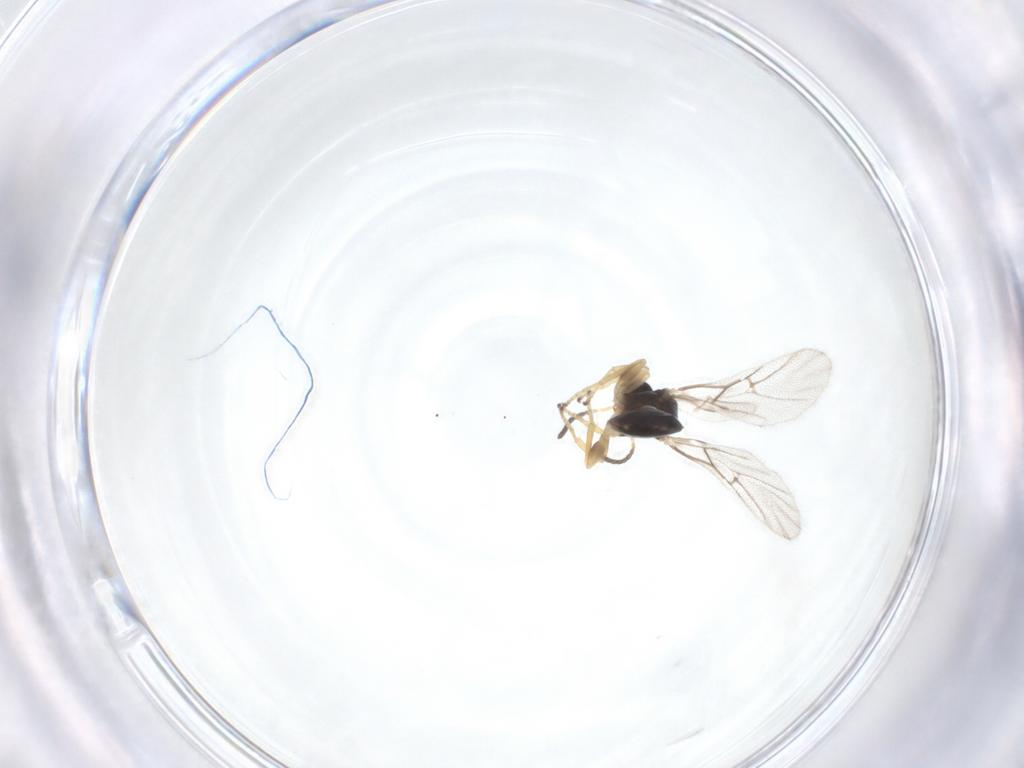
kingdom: Animalia
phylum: Arthropoda
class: Insecta
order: Hymenoptera
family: Cynipidae
